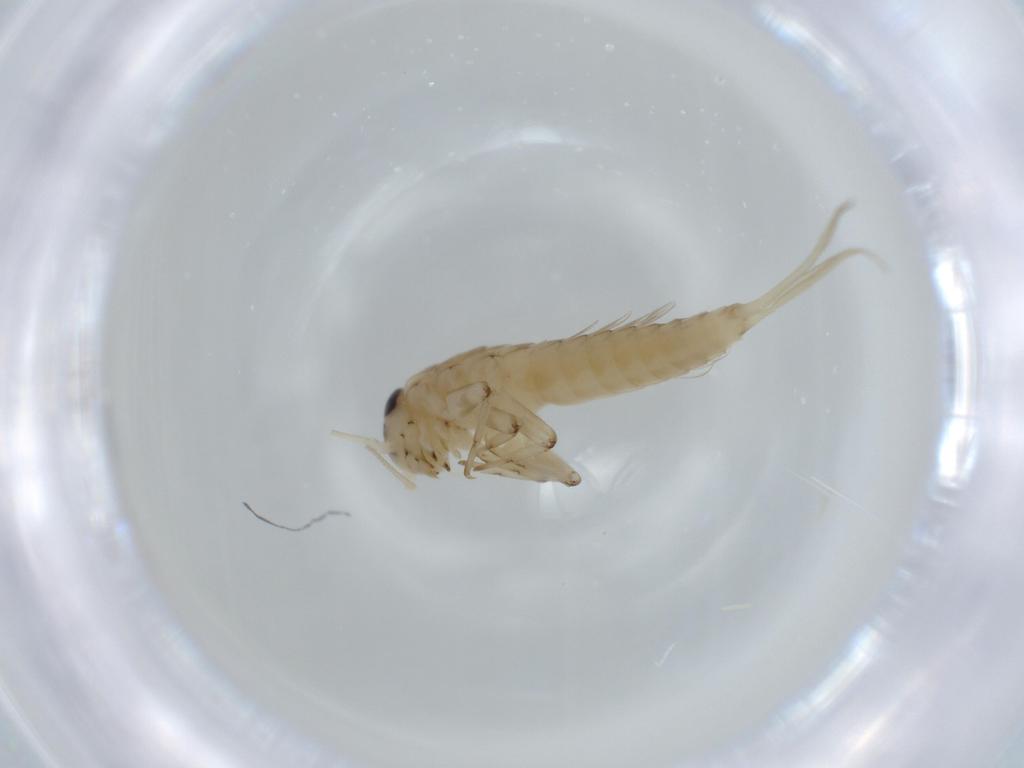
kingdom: Animalia
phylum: Arthropoda
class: Insecta
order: Ephemeroptera
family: Baetidae
